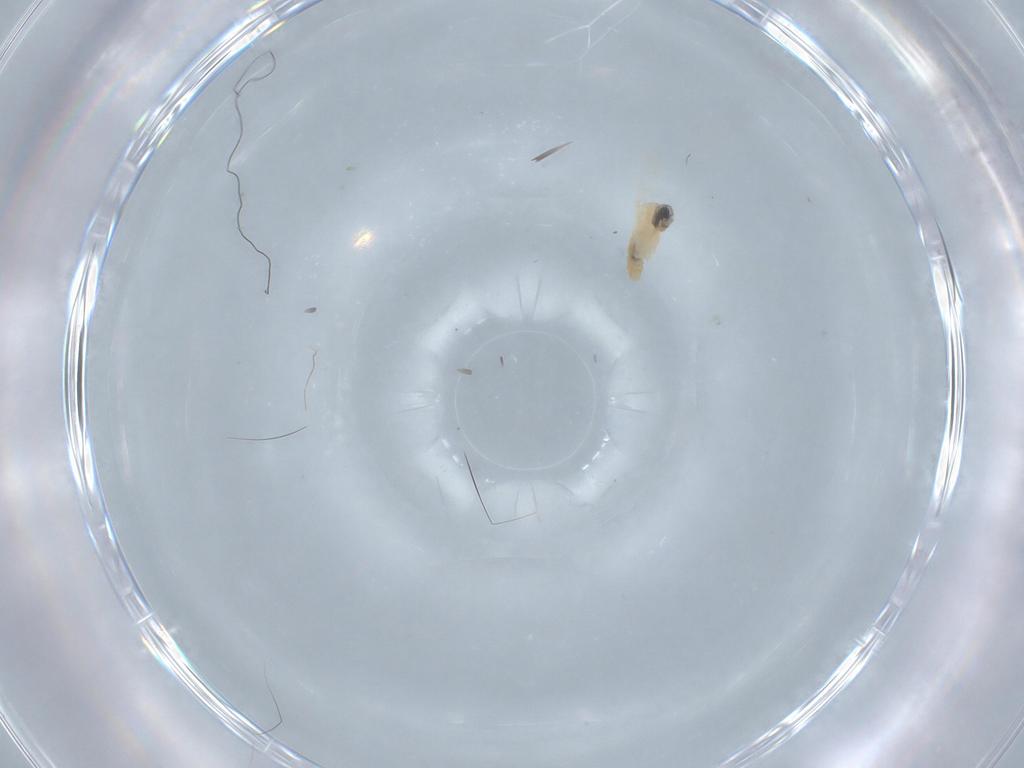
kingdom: Animalia
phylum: Arthropoda
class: Insecta
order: Diptera
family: Cecidomyiidae
